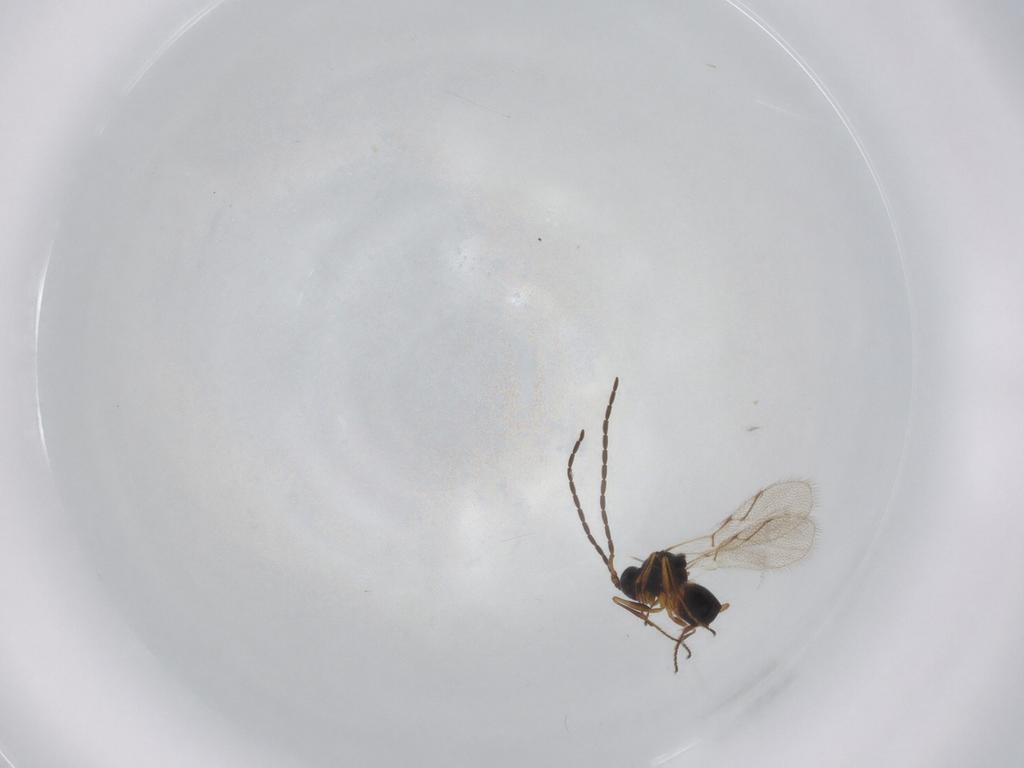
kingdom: Animalia
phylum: Arthropoda
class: Insecta
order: Hymenoptera
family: Figitidae
